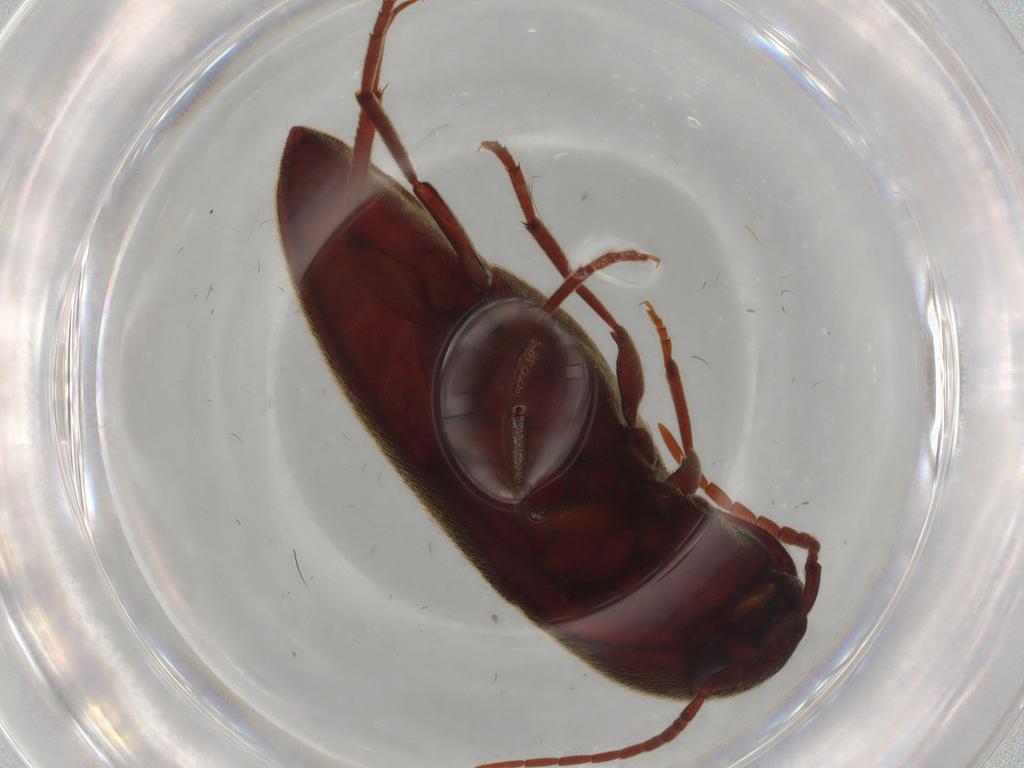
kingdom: Animalia
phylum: Arthropoda
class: Insecta
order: Coleoptera
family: Eucnemidae
